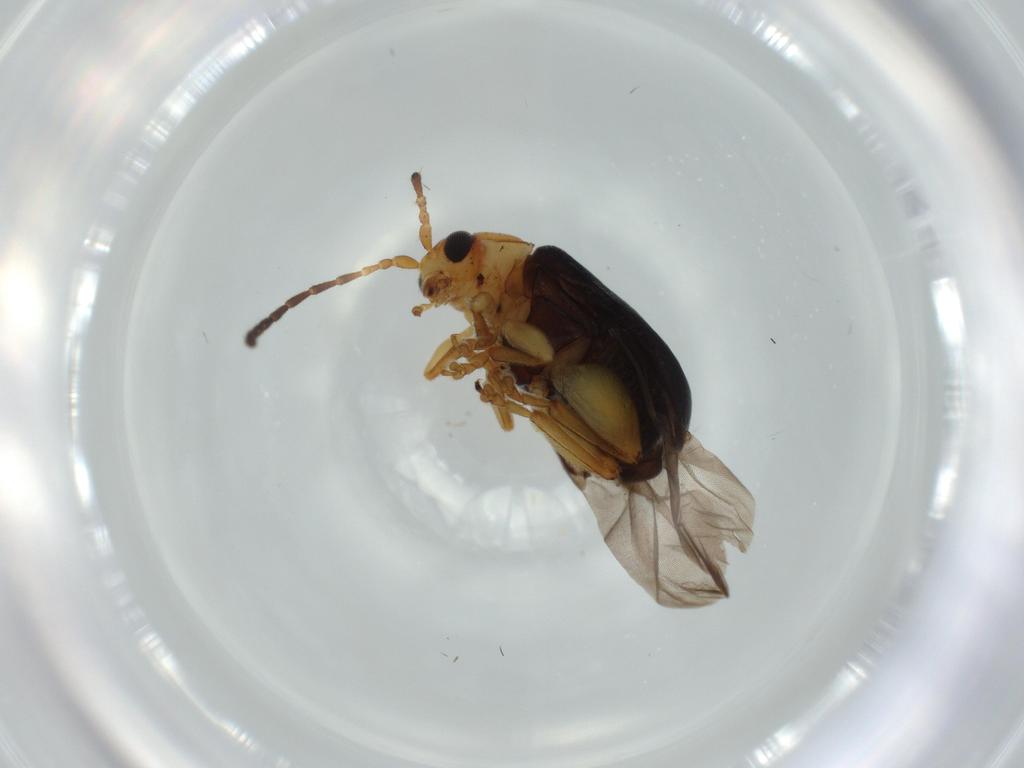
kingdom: Animalia
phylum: Arthropoda
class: Insecta
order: Coleoptera
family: Chrysomelidae
